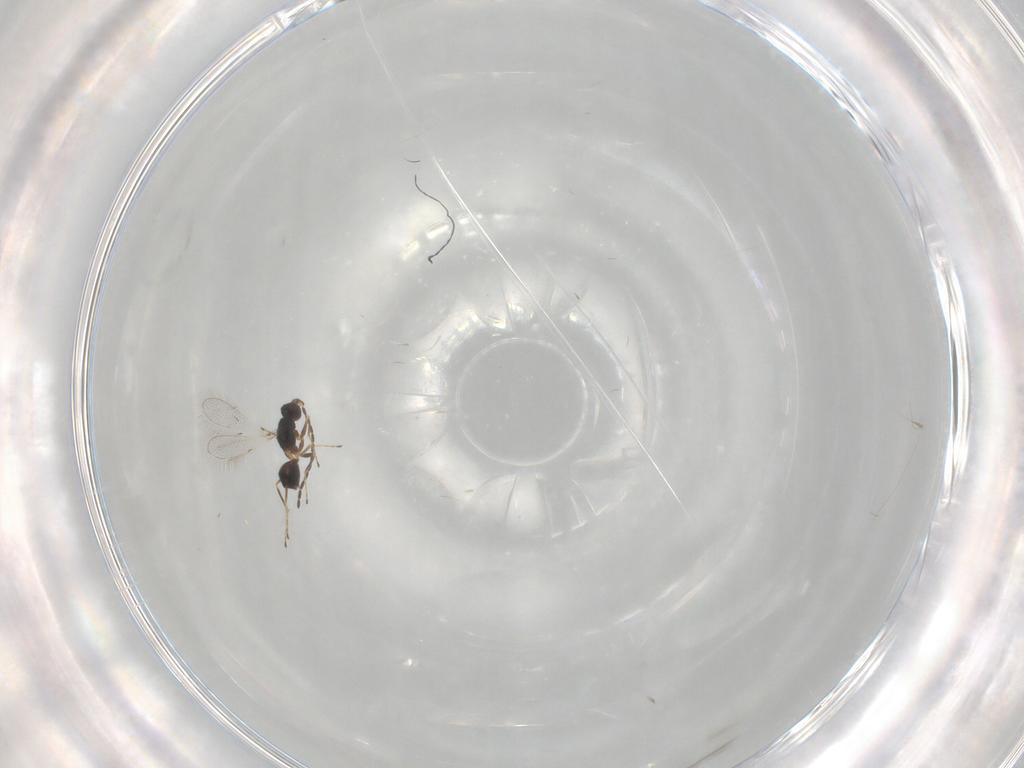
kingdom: Animalia
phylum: Arthropoda
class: Insecta
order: Hymenoptera
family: Mymaridae
